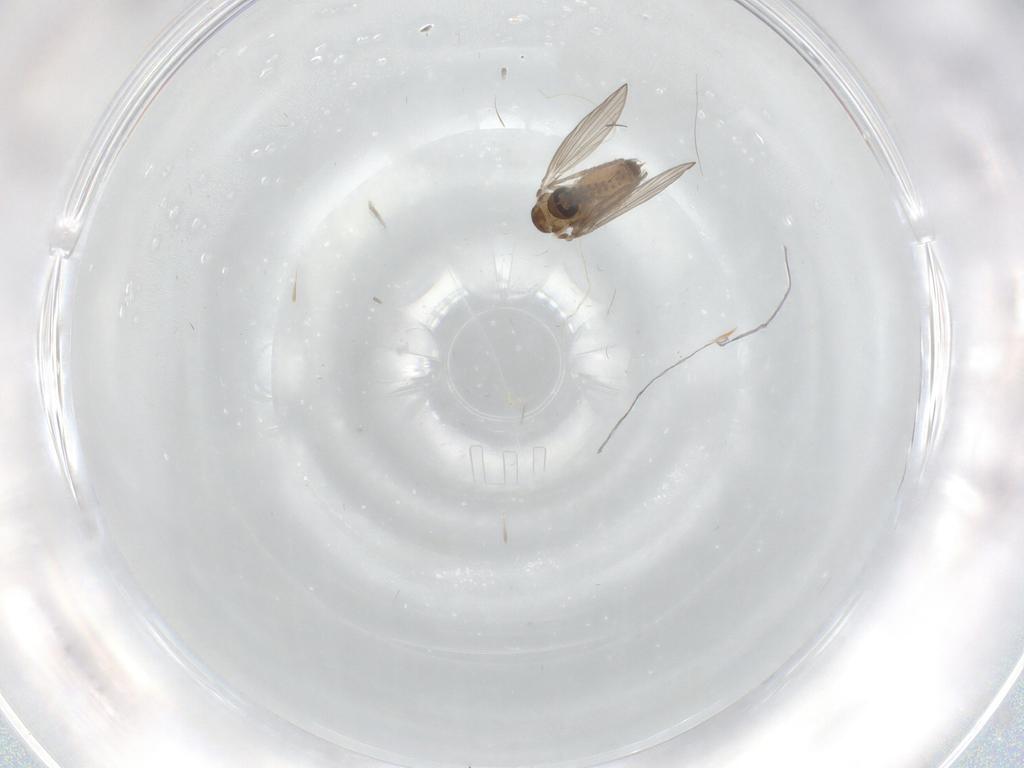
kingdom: Animalia
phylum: Arthropoda
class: Insecta
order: Diptera
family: Psychodidae
